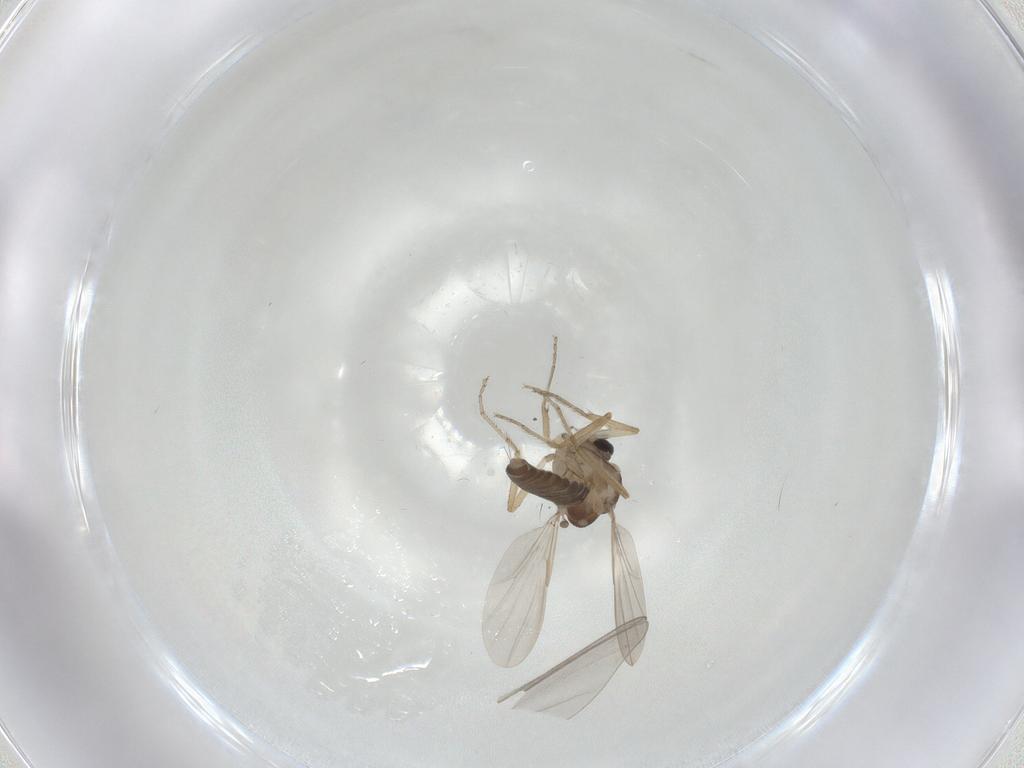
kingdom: Animalia
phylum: Arthropoda
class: Insecta
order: Diptera
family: Ceratopogonidae
